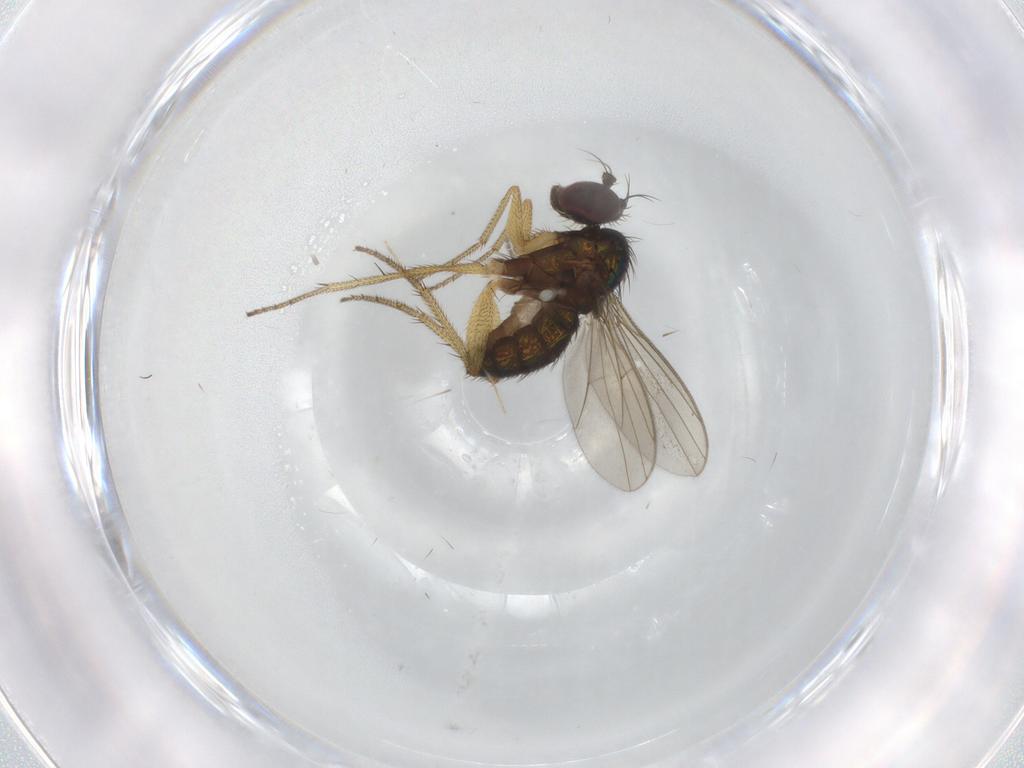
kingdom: Animalia
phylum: Arthropoda
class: Insecta
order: Diptera
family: Sciaridae
